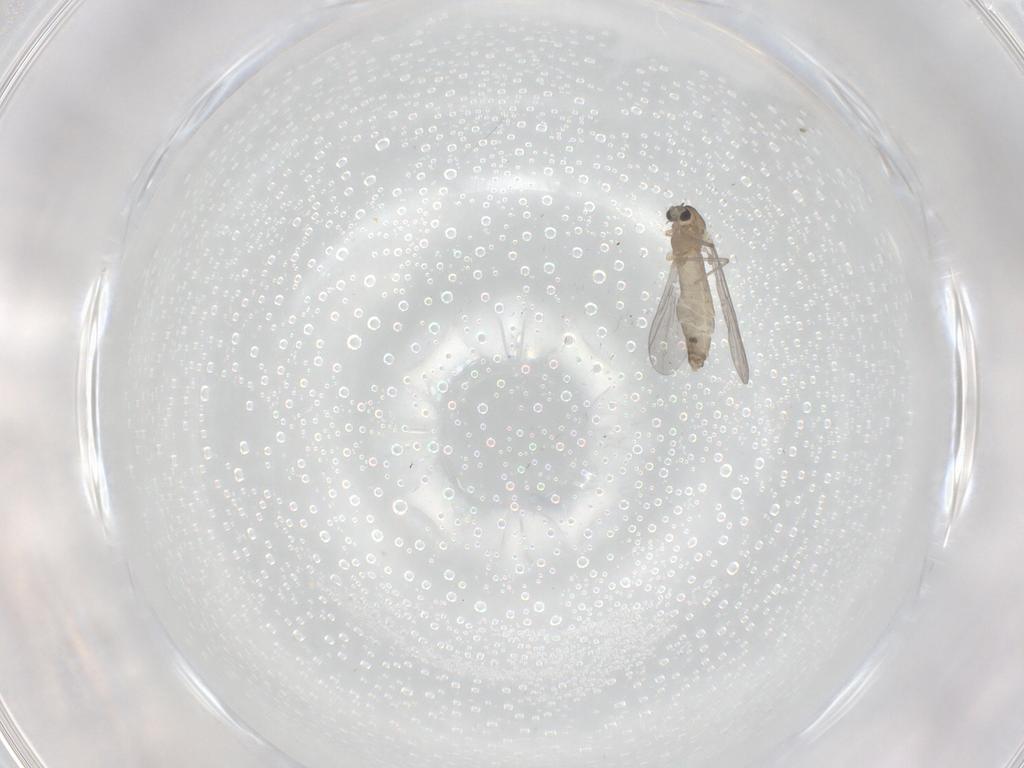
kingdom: Animalia
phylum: Arthropoda
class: Insecta
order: Diptera
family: Chironomidae
